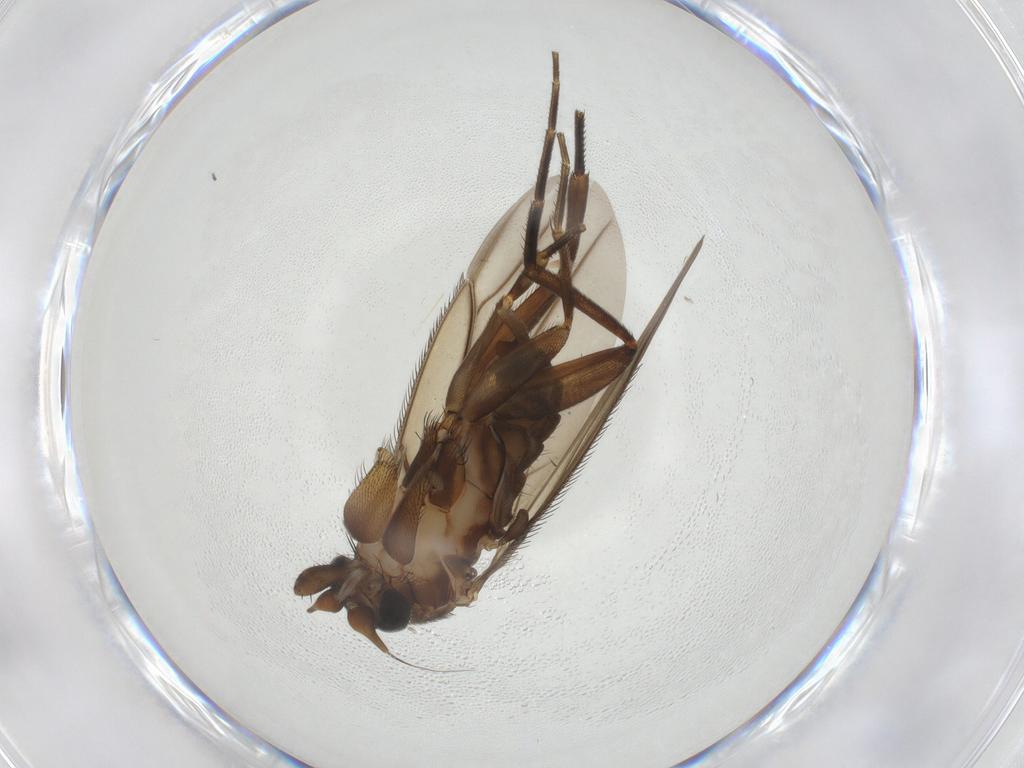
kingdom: Animalia
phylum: Arthropoda
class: Insecta
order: Diptera
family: Phoridae
